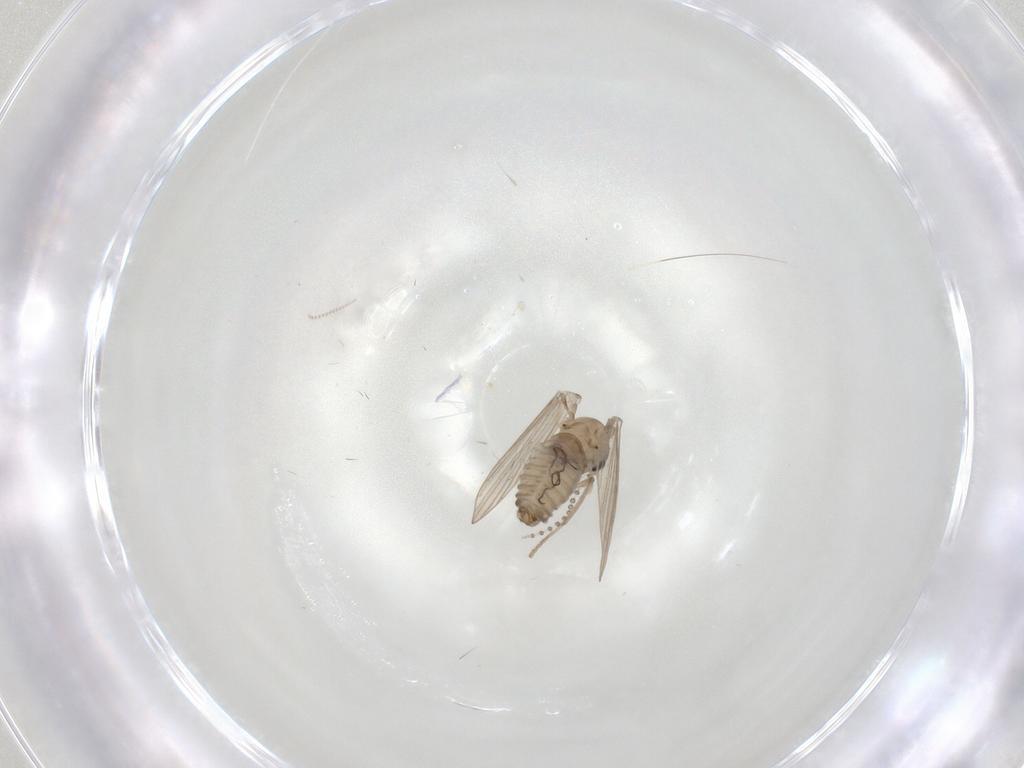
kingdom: Animalia
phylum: Arthropoda
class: Insecta
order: Diptera
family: Psychodidae
